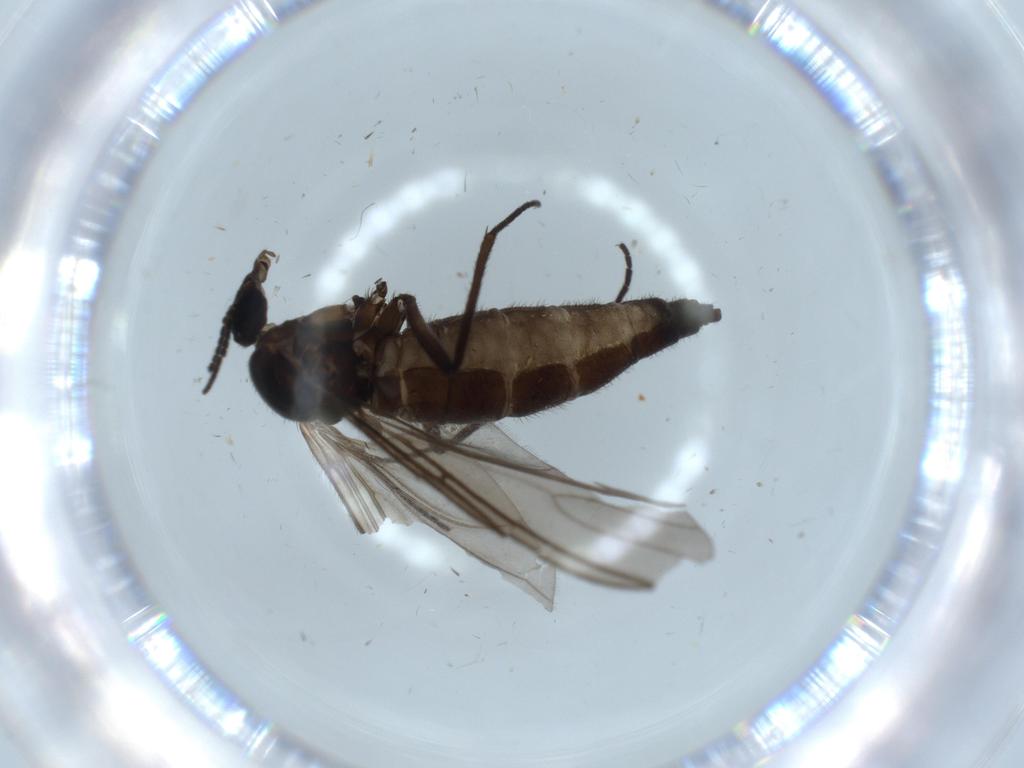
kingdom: Animalia
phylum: Arthropoda
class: Insecta
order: Diptera
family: Sciaridae
